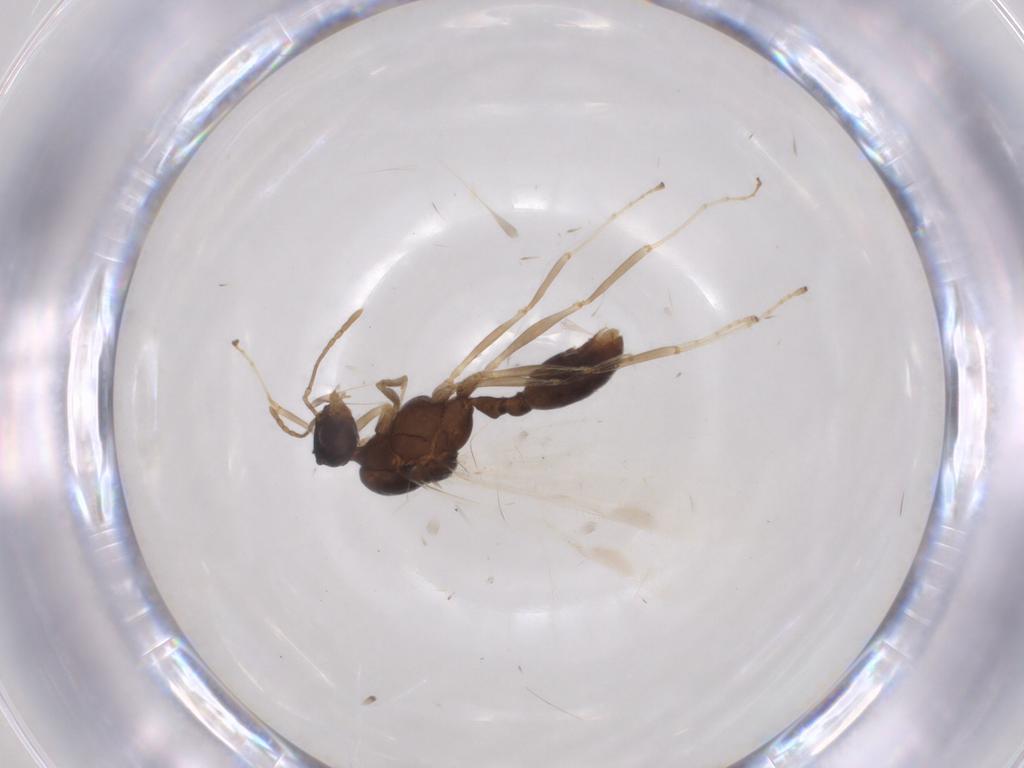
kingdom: Animalia
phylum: Arthropoda
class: Insecta
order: Hymenoptera
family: Formicidae
